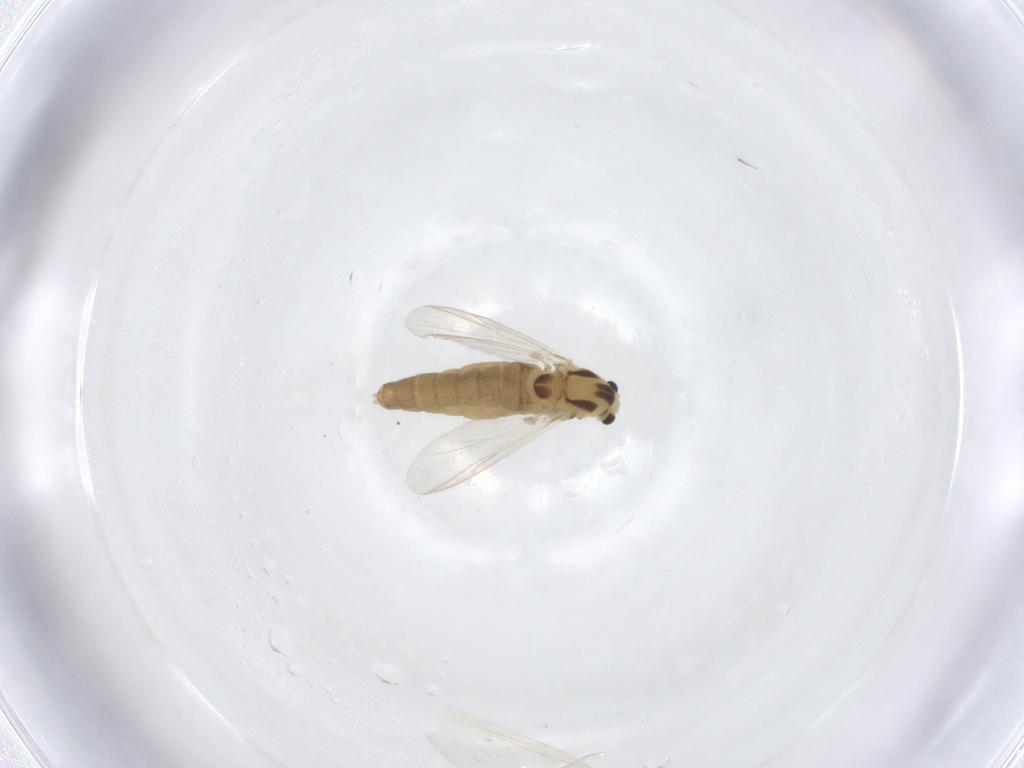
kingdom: Animalia
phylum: Arthropoda
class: Insecta
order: Diptera
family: Chironomidae
